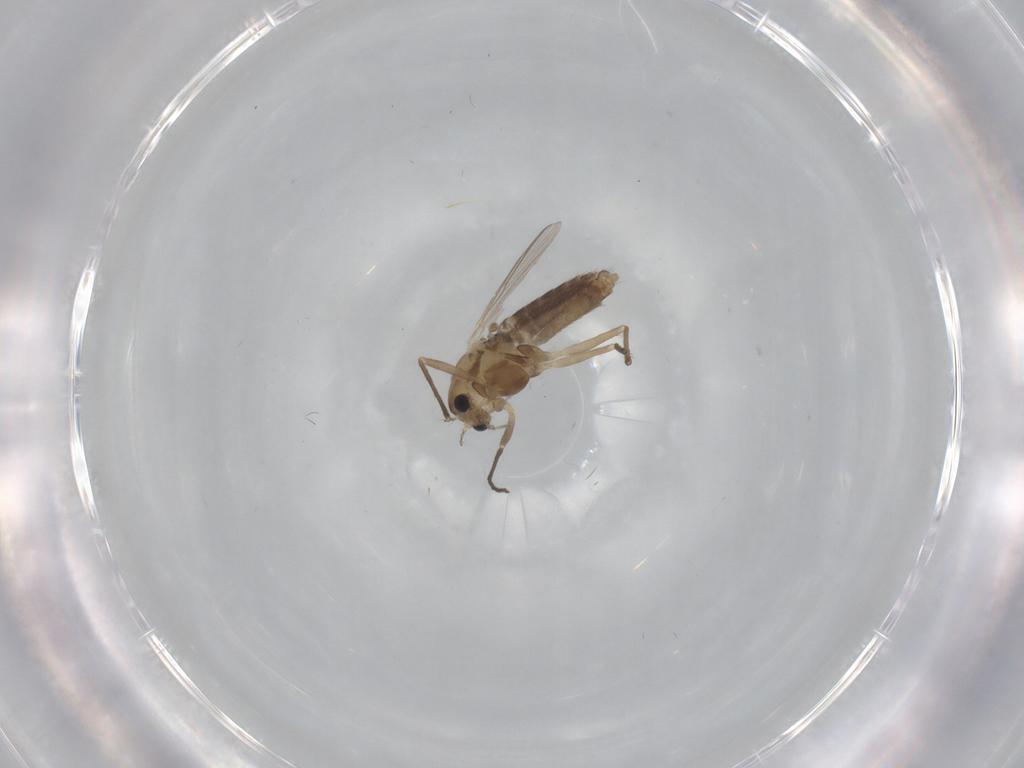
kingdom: Animalia
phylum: Arthropoda
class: Insecta
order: Diptera
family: Chironomidae
